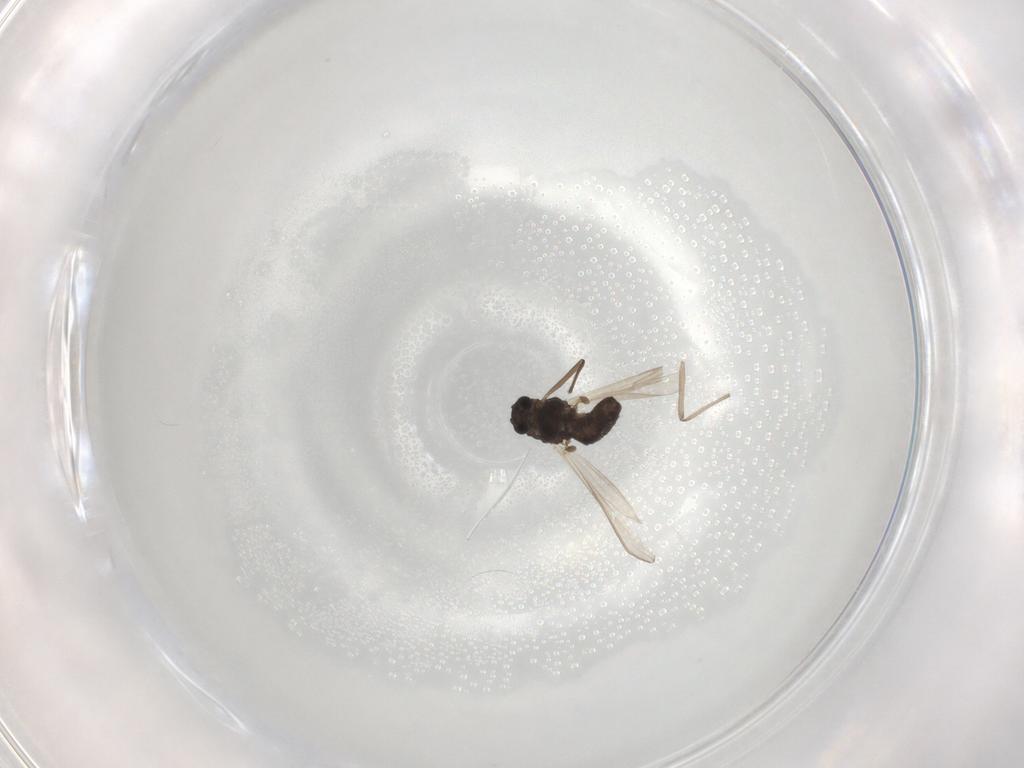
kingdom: Animalia
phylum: Arthropoda
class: Insecta
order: Diptera
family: Chironomidae
